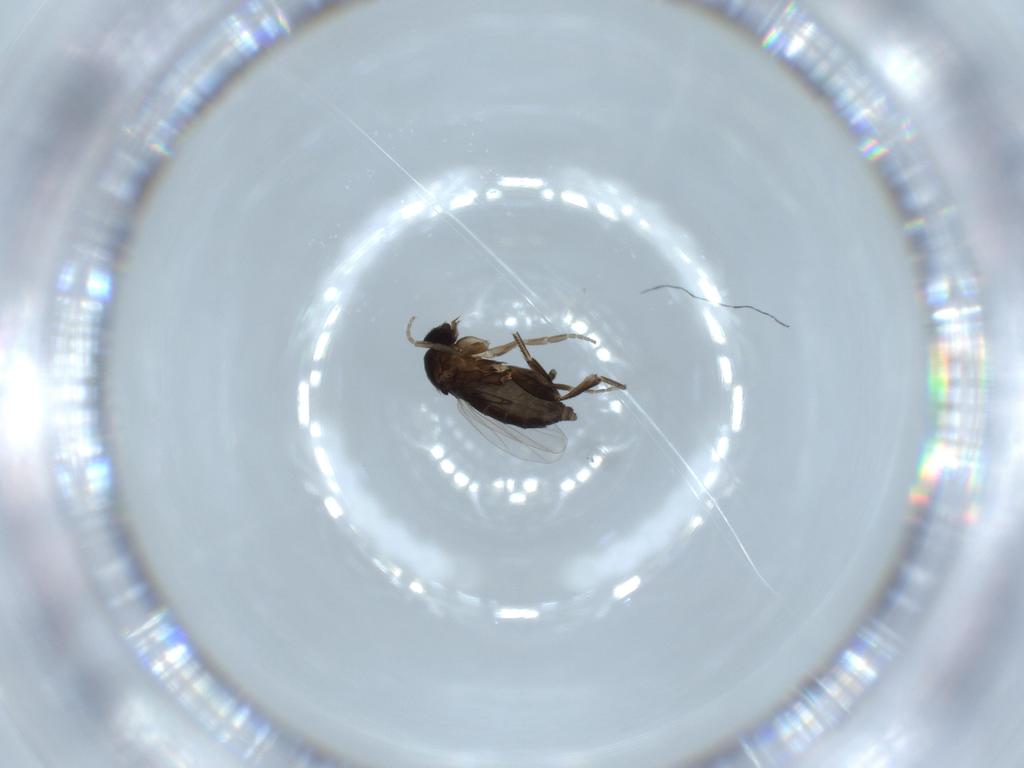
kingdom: Animalia
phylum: Arthropoda
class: Insecta
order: Diptera
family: Phoridae
